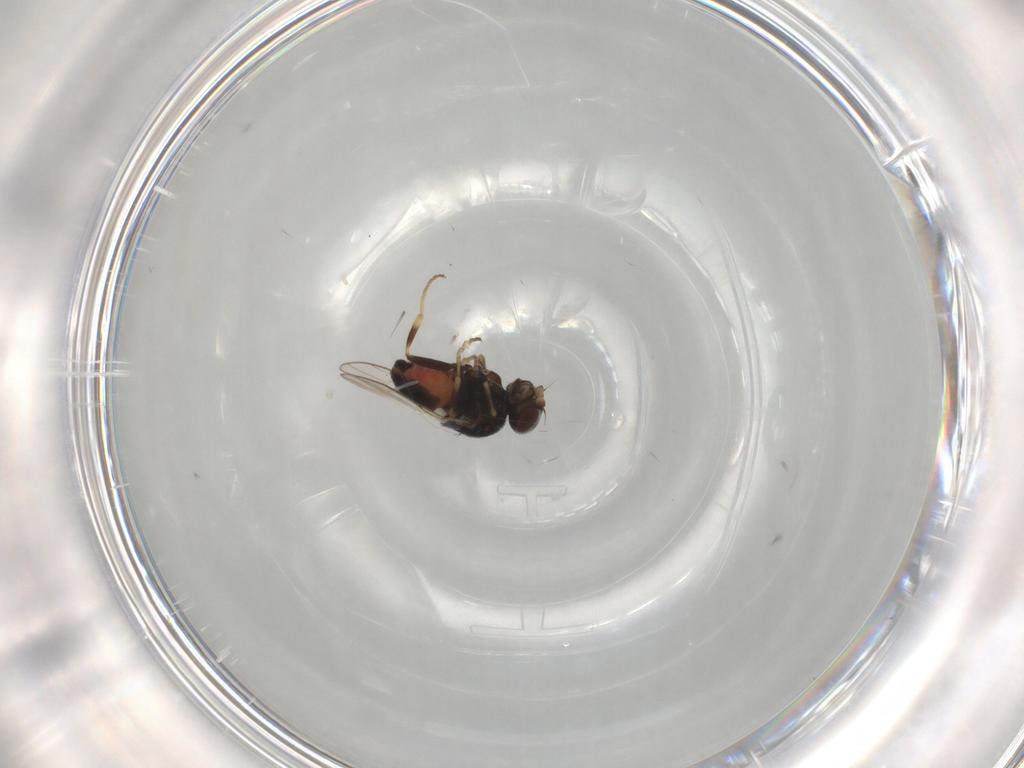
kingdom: Animalia
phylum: Arthropoda
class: Insecta
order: Diptera
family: Chloropidae
